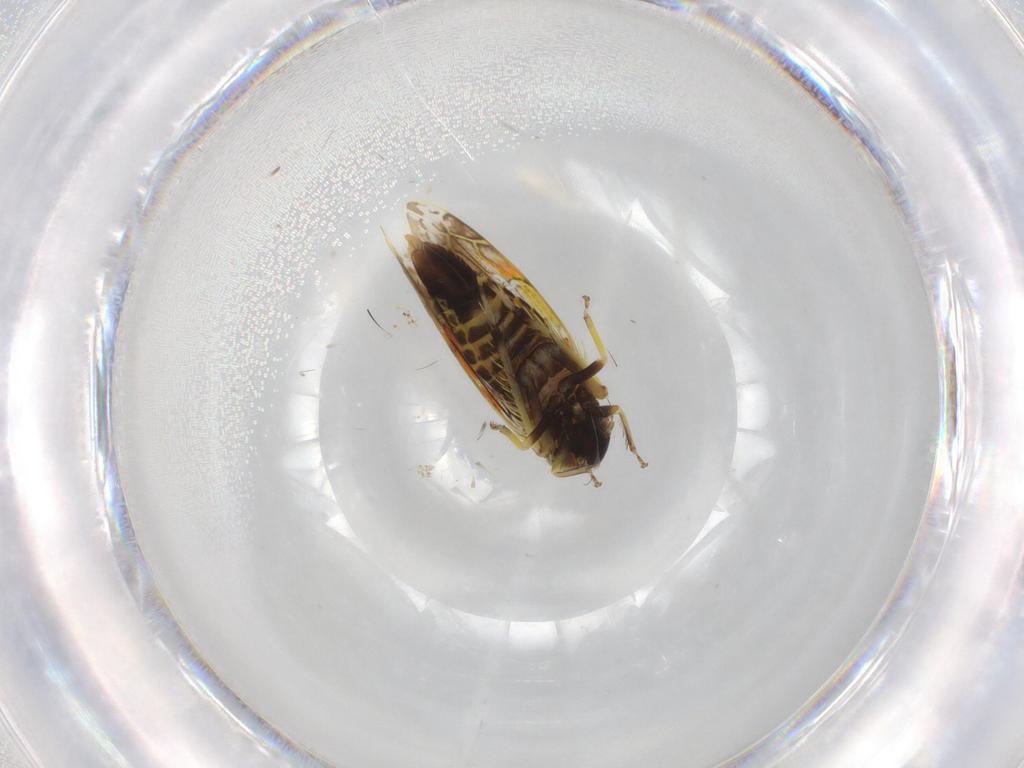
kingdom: Animalia
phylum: Arthropoda
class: Insecta
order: Hemiptera
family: Cicadellidae
